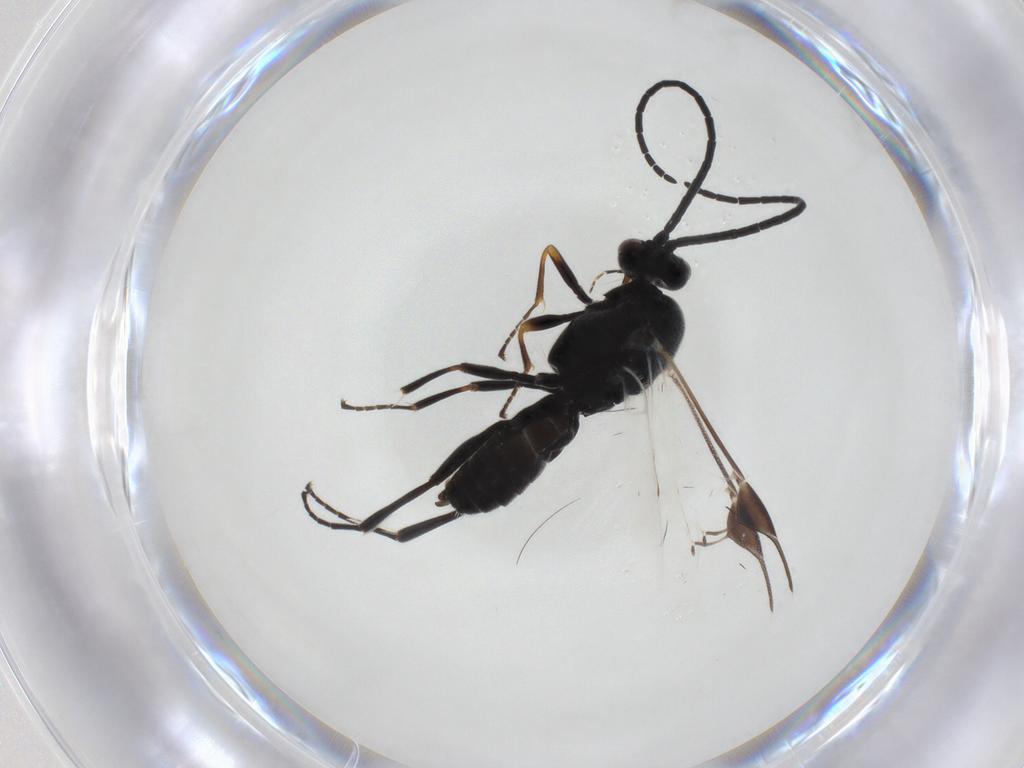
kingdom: Animalia
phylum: Arthropoda
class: Insecta
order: Hymenoptera
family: Braconidae
